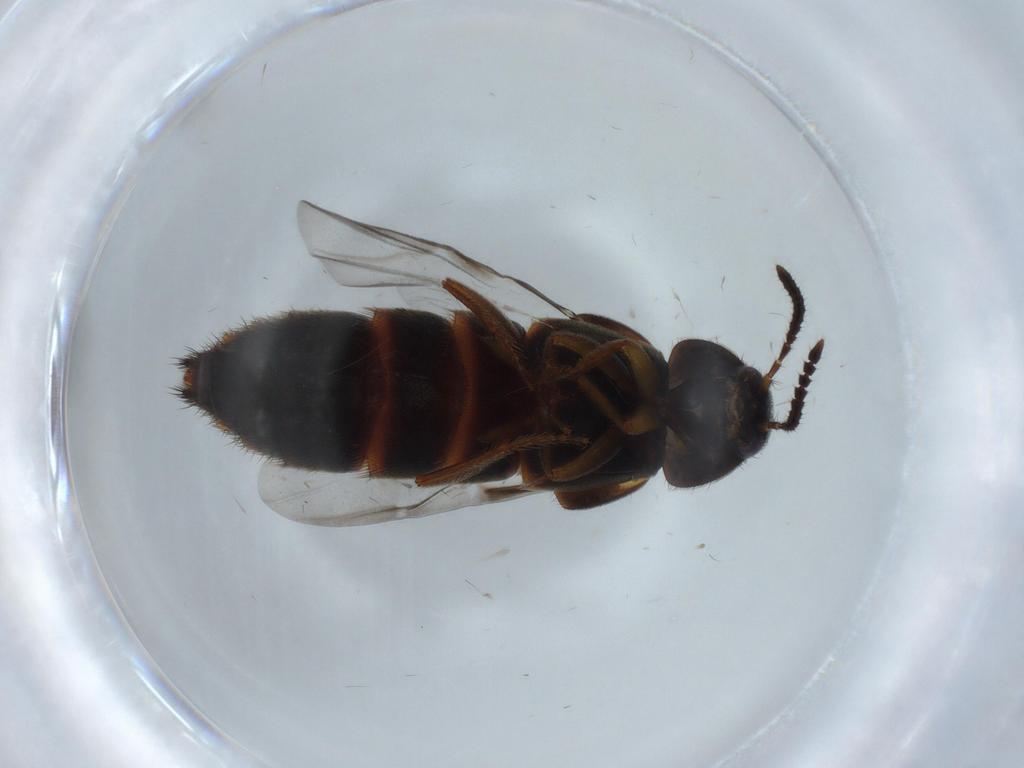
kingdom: Animalia
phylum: Arthropoda
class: Insecta
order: Coleoptera
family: Staphylinidae
